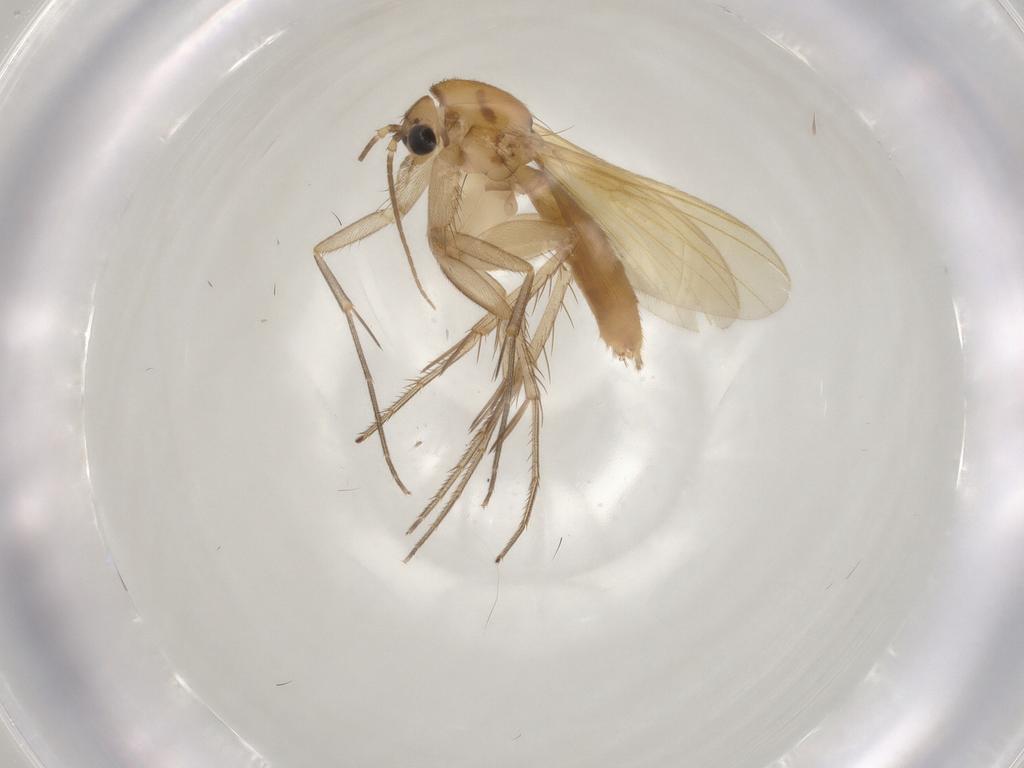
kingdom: Animalia
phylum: Arthropoda
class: Insecta
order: Diptera
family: Mycetophilidae
